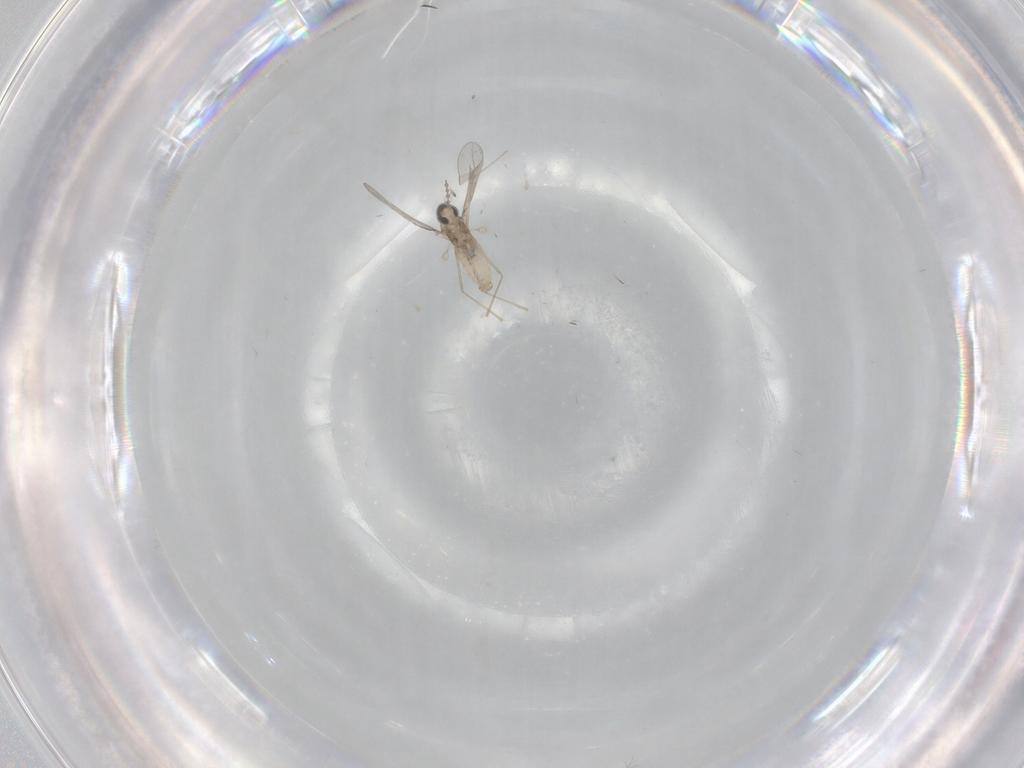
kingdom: Animalia
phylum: Arthropoda
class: Insecta
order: Diptera
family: Cecidomyiidae
